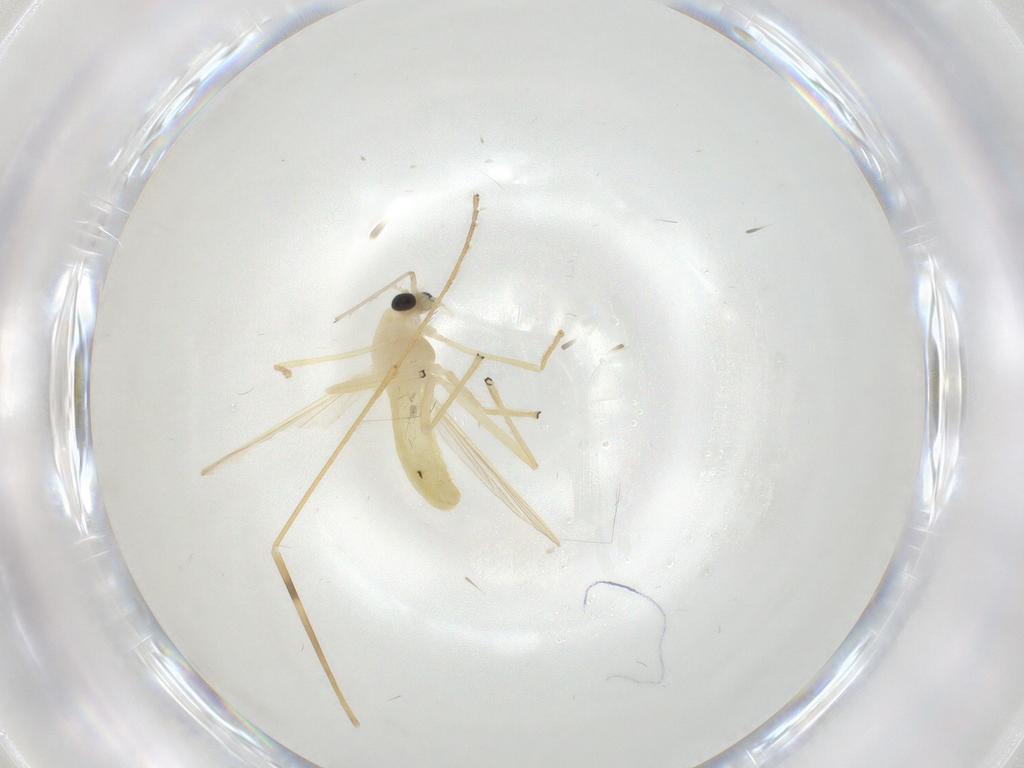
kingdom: Animalia
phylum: Arthropoda
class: Insecta
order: Diptera
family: Chironomidae
